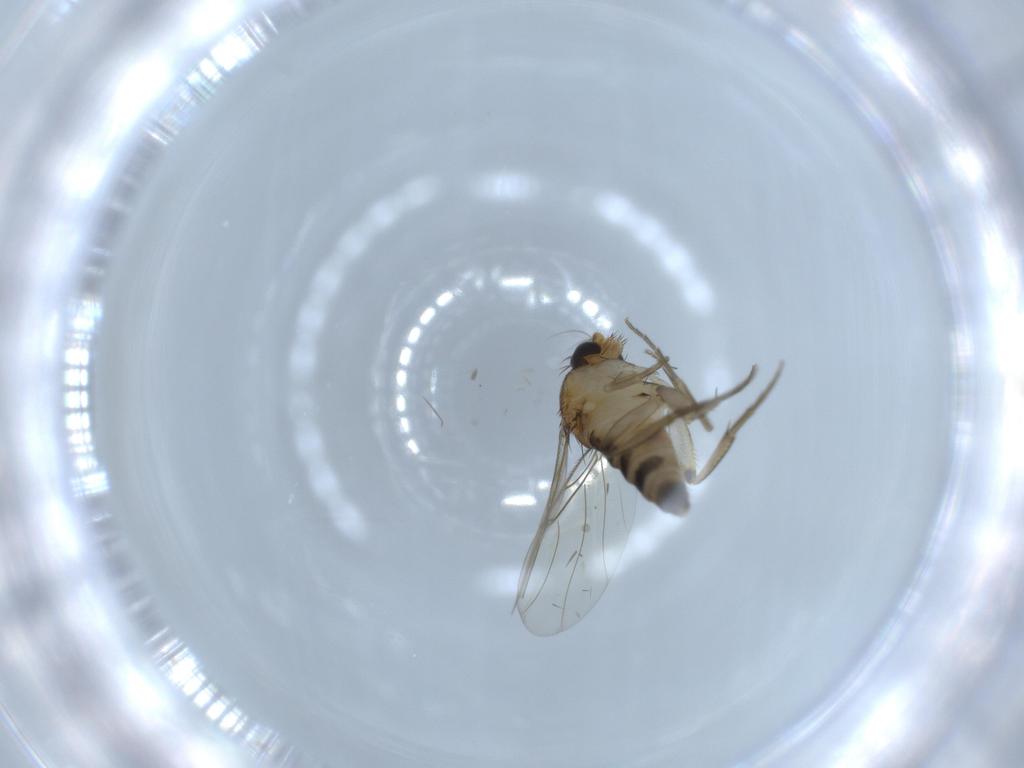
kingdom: Animalia
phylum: Arthropoda
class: Insecta
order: Diptera
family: Phoridae
